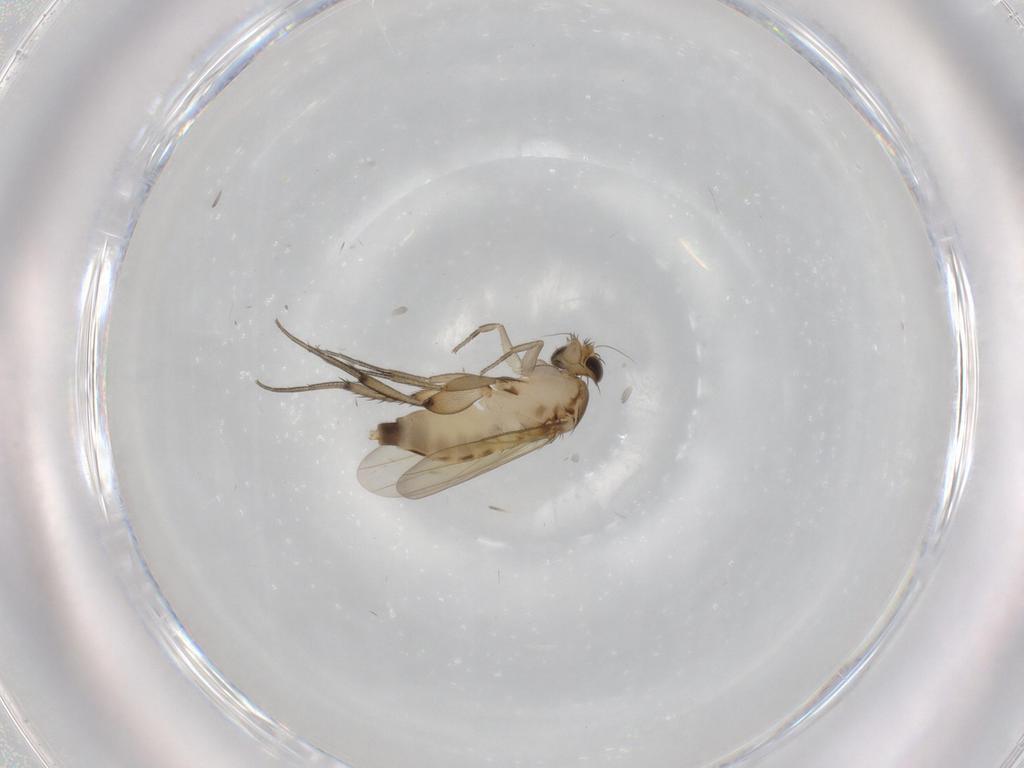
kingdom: Animalia
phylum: Arthropoda
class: Insecta
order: Diptera
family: Phoridae
